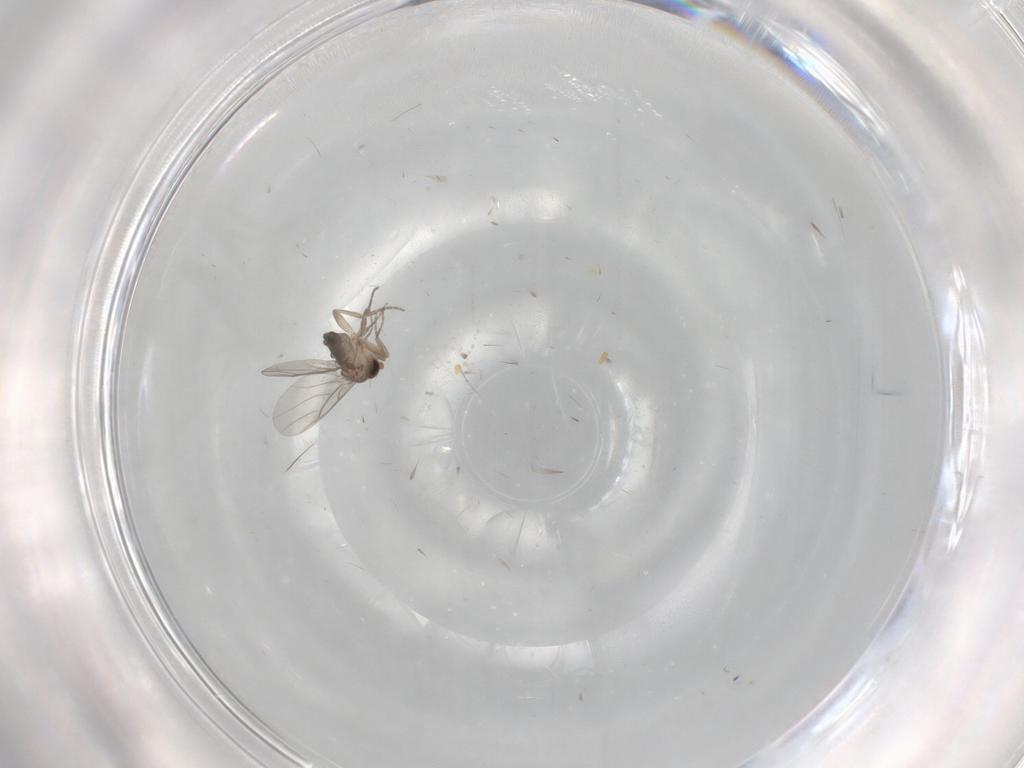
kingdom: Animalia
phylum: Arthropoda
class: Insecta
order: Diptera
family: Phoridae
